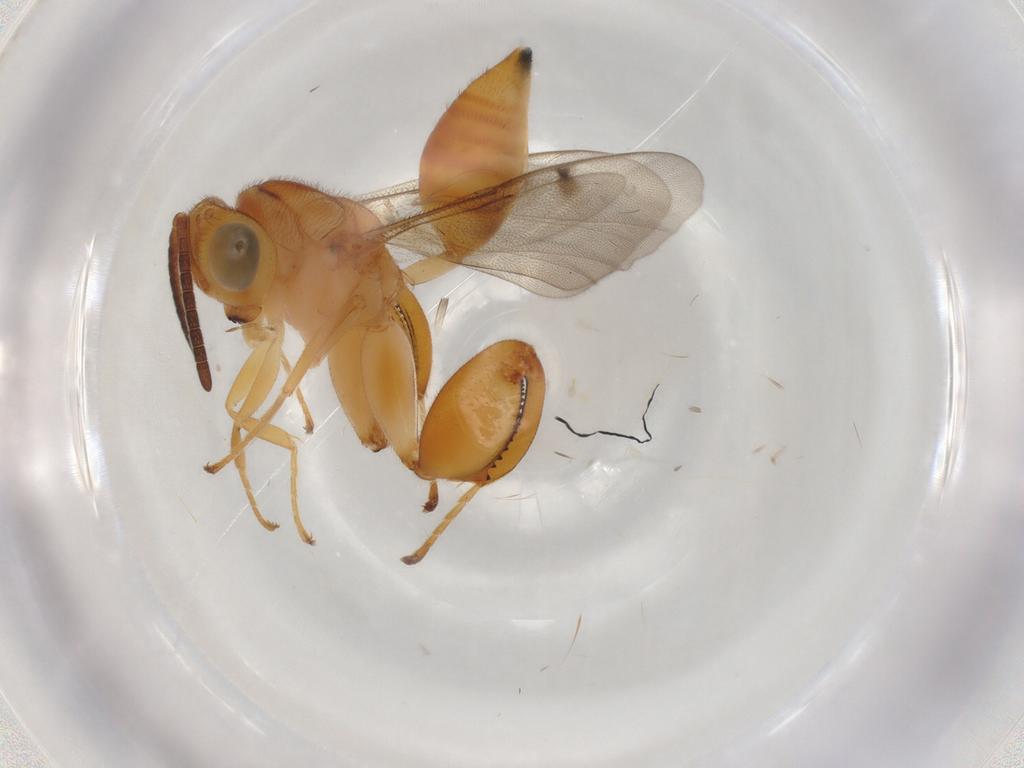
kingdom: Animalia
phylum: Arthropoda
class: Insecta
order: Hymenoptera
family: Chalcididae
